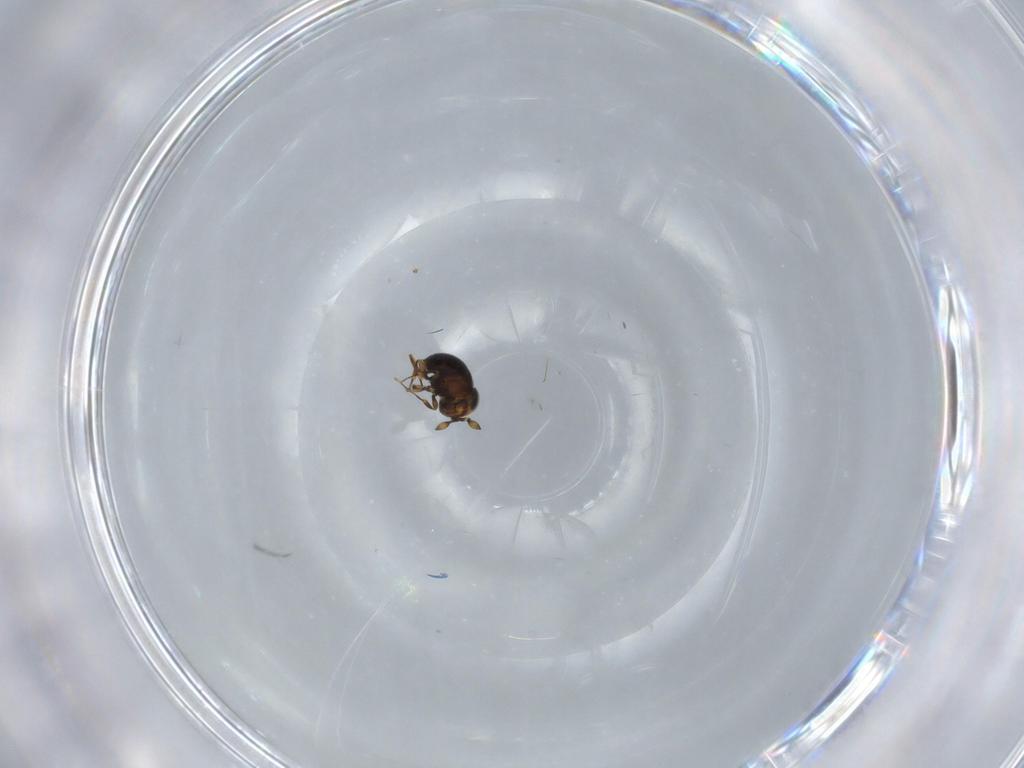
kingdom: Animalia
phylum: Arthropoda
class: Insecta
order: Hymenoptera
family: Scelionidae
